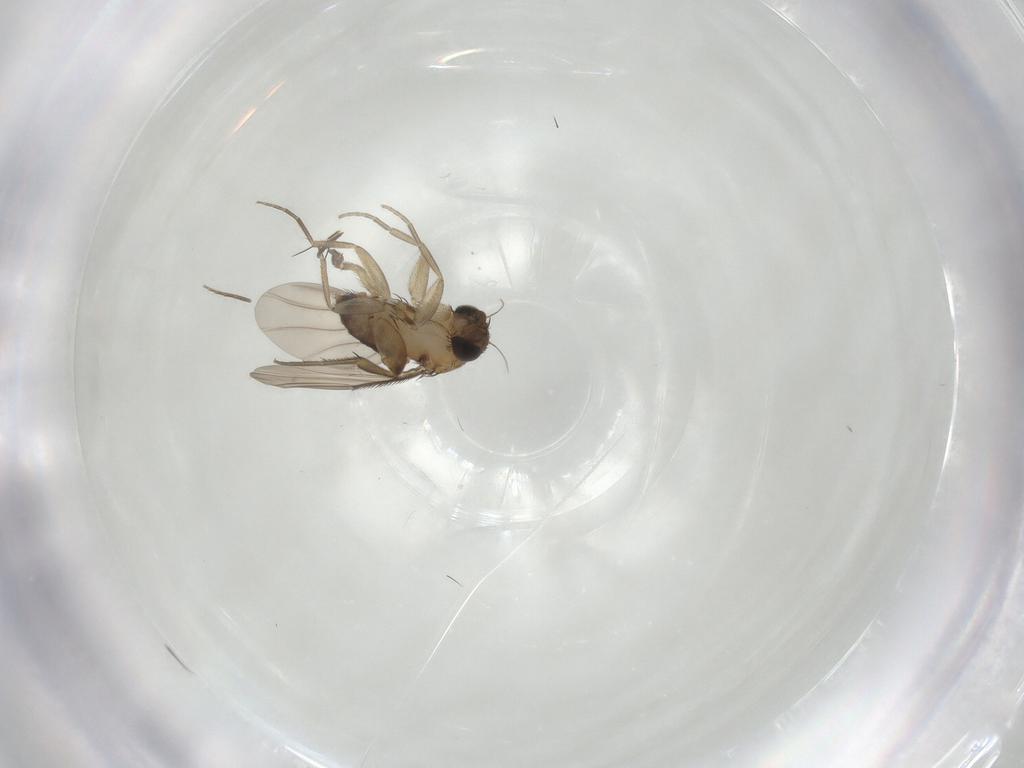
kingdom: Animalia
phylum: Arthropoda
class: Insecta
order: Diptera
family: Phoridae
